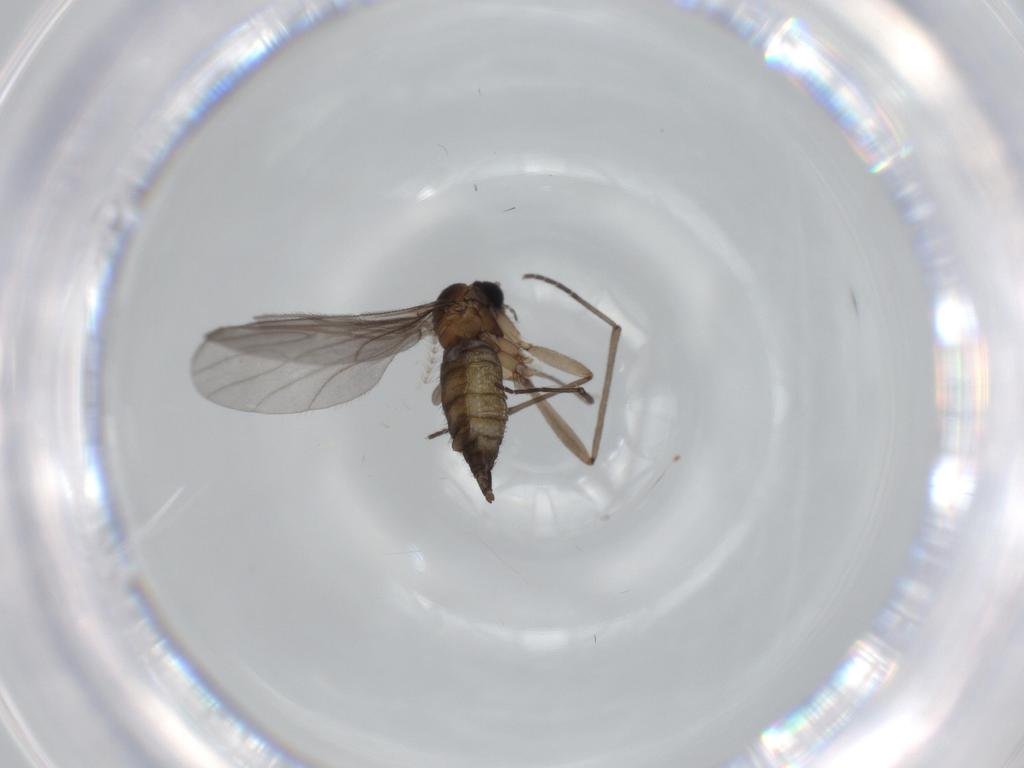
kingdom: Animalia
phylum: Arthropoda
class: Insecta
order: Diptera
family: Sciaridae
